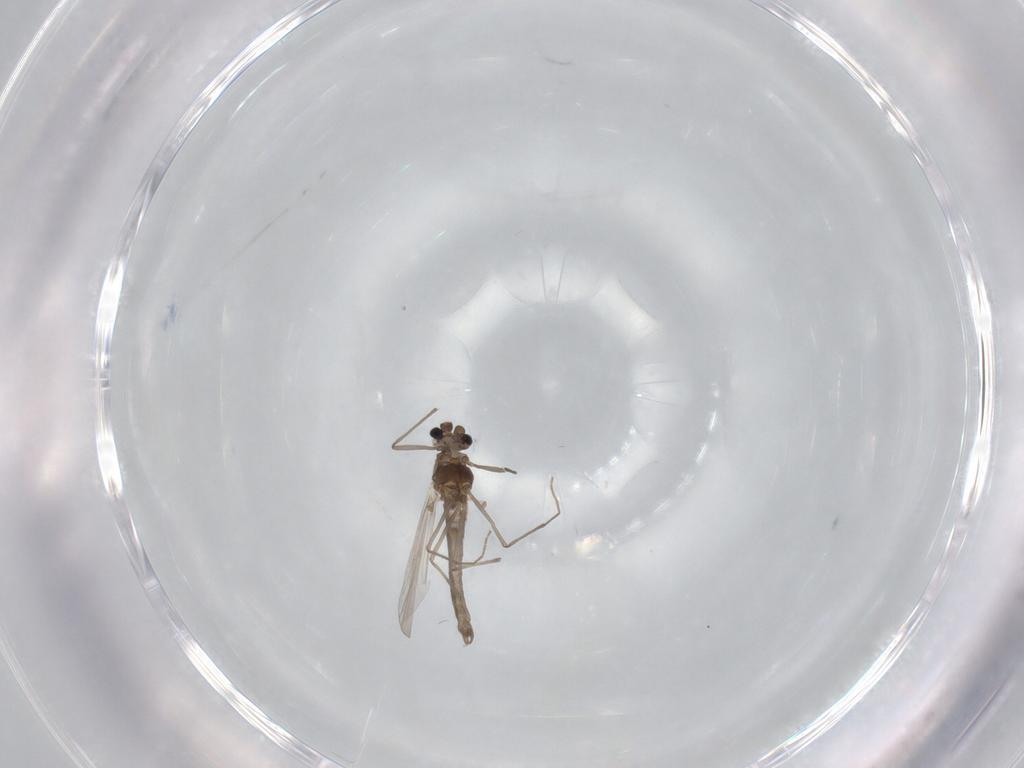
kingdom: Animalia
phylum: Arthropoda
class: Insecta
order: Diptera
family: Chironomidae
